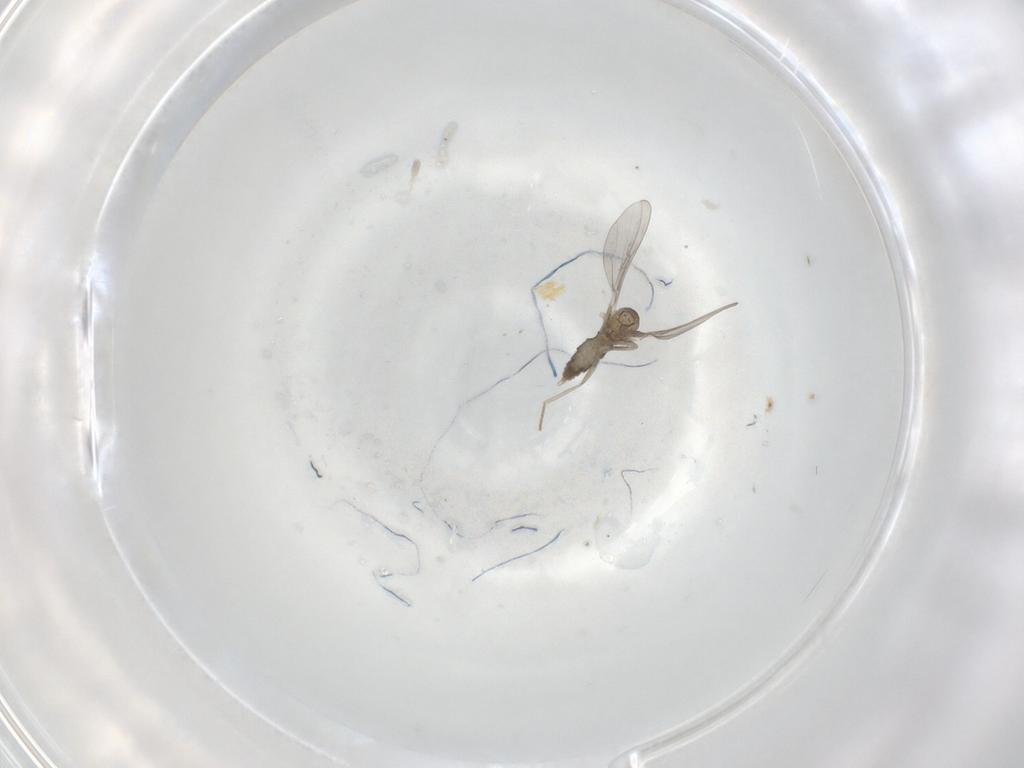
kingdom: Animalia
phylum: Arthropoda
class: Insecta
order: Diptera
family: Cecidomyiidae
